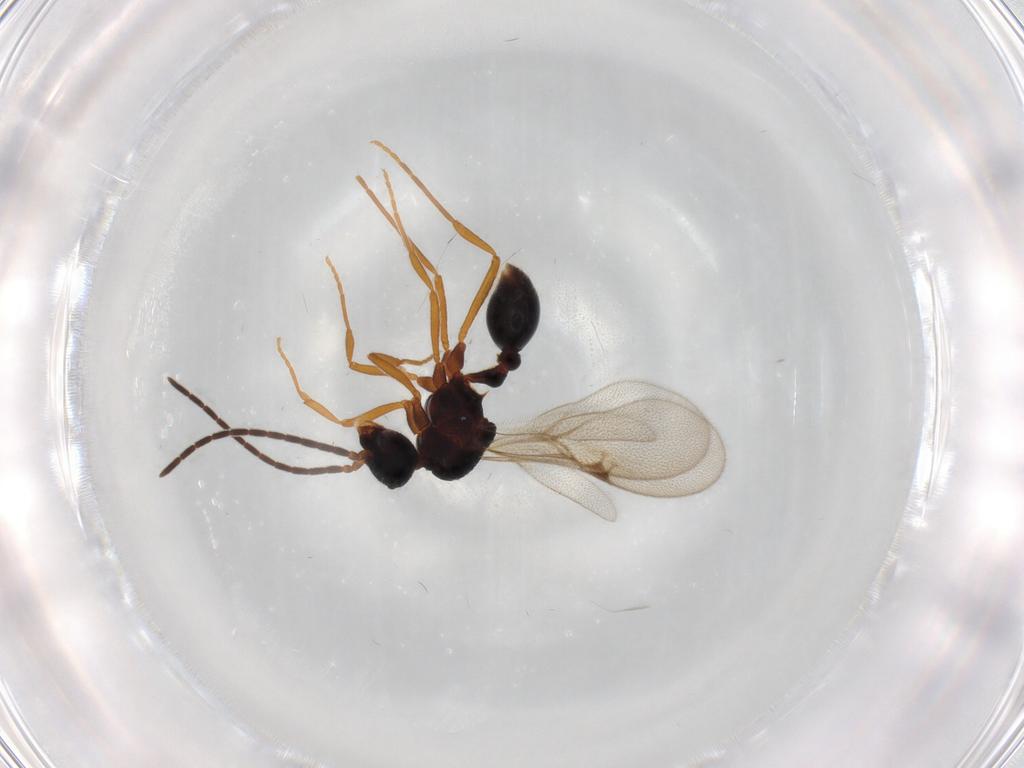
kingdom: Animalia
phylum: Arthropoda
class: Insecta
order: Hymenoptera
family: Formicidae
